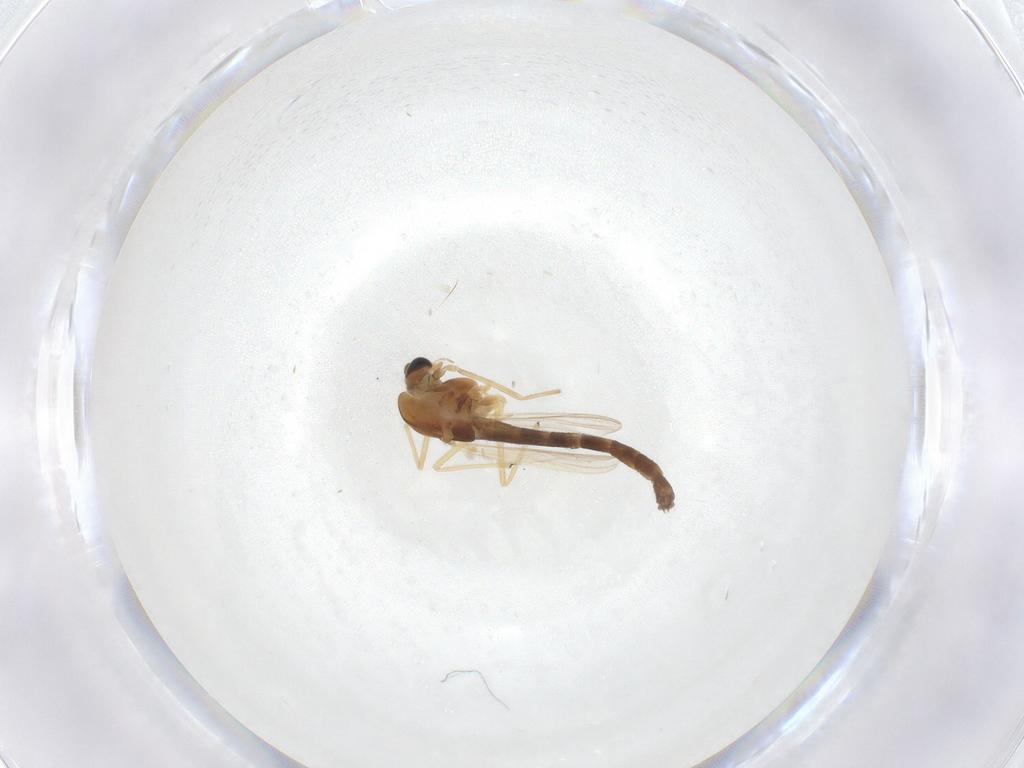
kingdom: Animalia
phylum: Arthropoda
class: Insecta
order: Diptera
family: Chironomidae
